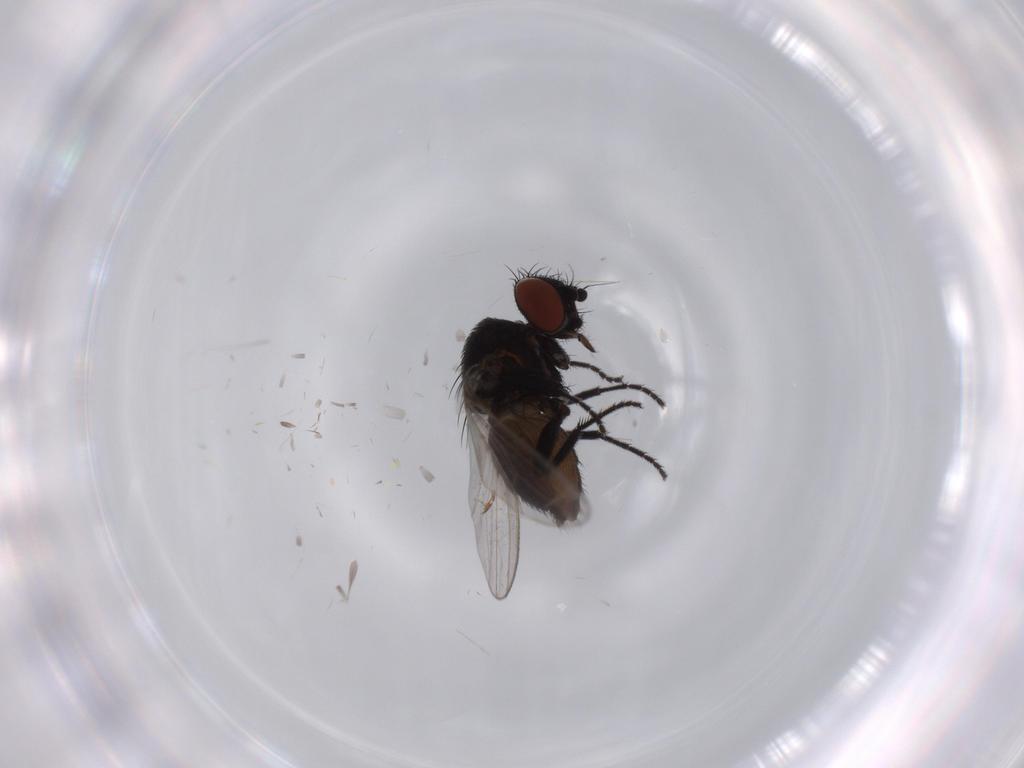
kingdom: Animalia
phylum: Arthropoda
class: Insecta
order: Diptera
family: Milichiidae
